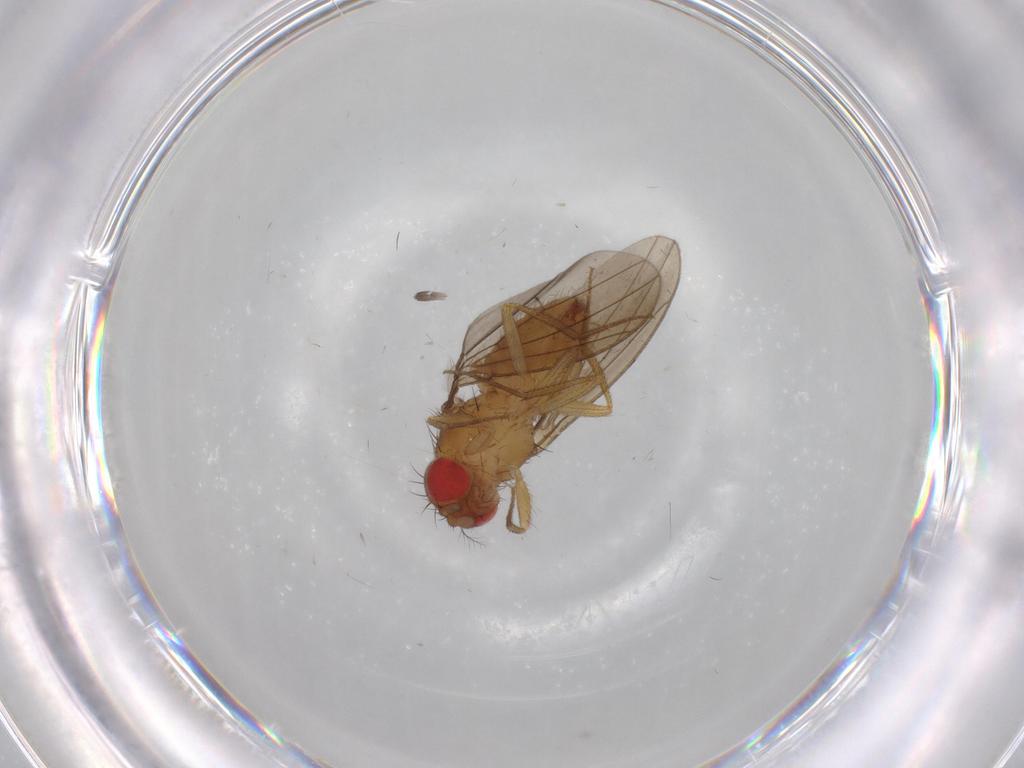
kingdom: Animalia
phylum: Arthropoda
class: Insecta
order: Diptera
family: Drosophilidae
